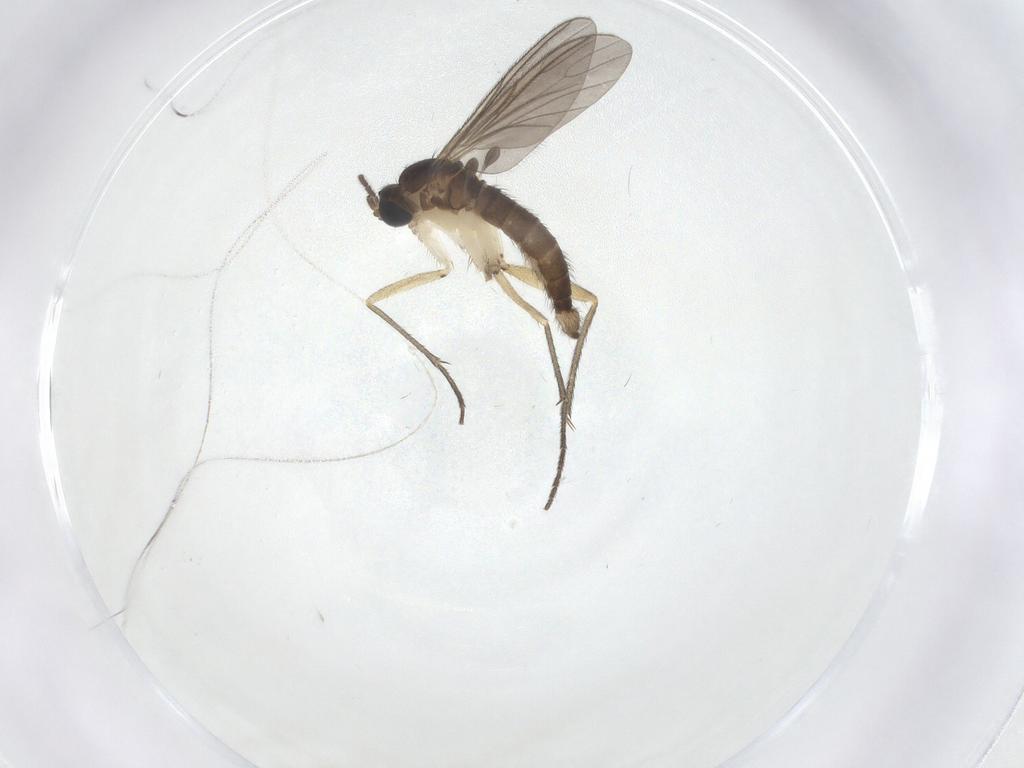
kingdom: Animalia
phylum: Arthropoda
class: Insecta
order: Diptera
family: Sciaridae
